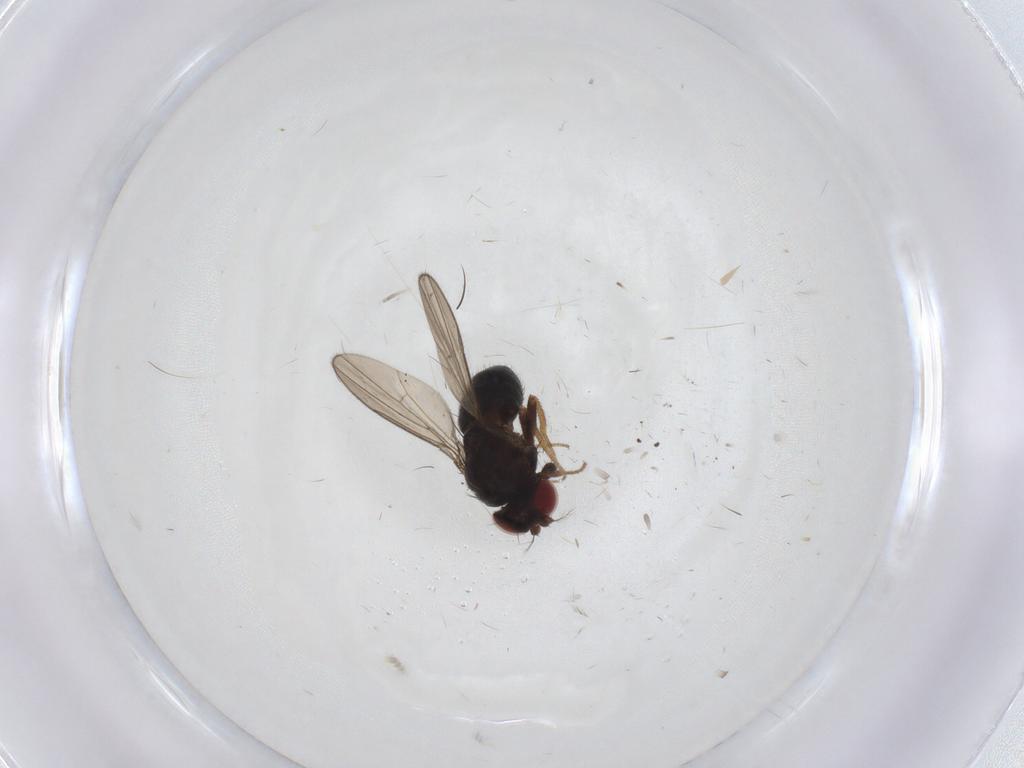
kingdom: Animalia
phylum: Arthropoda
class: Insecta
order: Diptera
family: Drosophilidae
